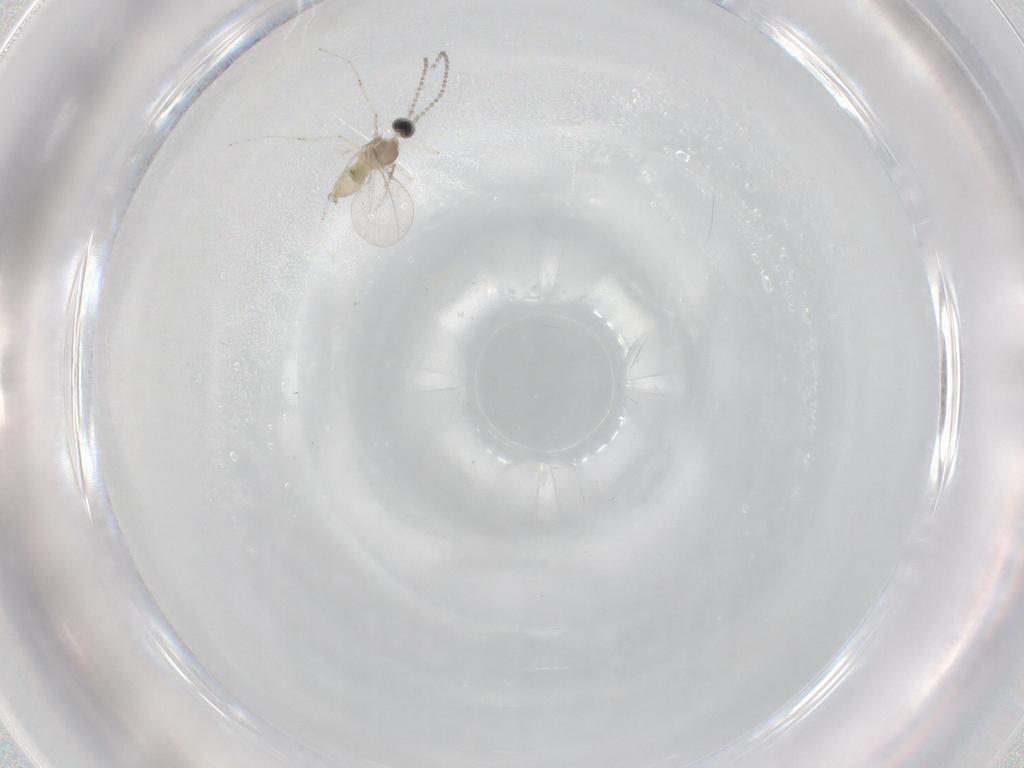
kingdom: Animalia
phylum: Arthropoda
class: Insecta
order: Diptera
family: Cecidomyiidae
